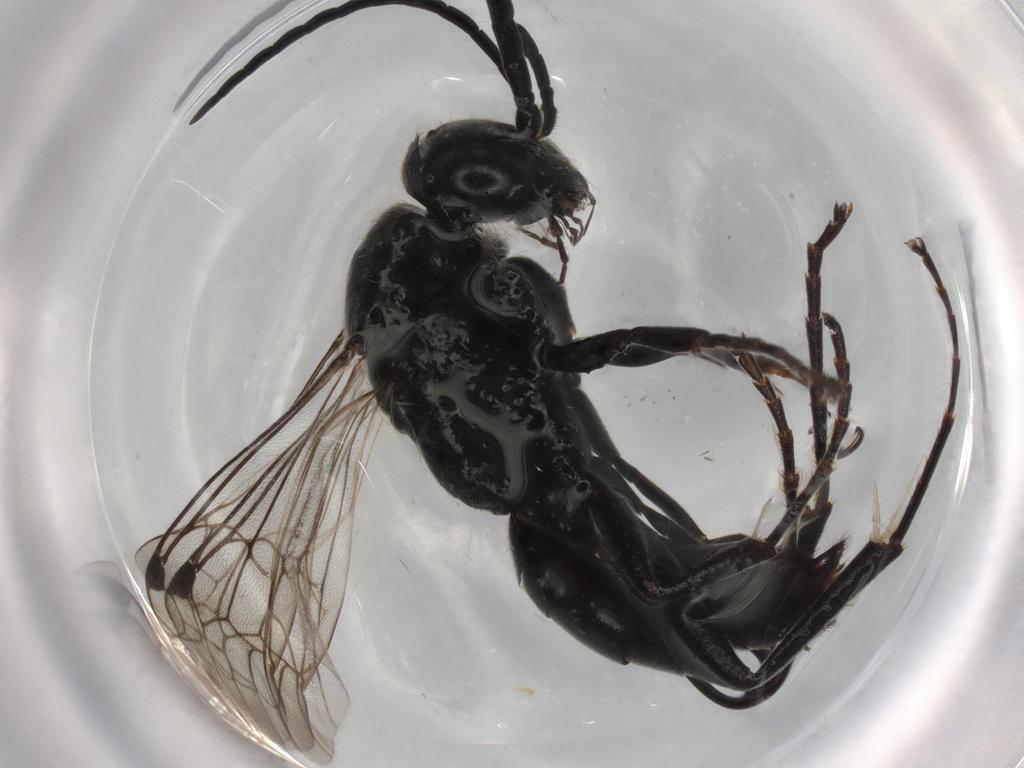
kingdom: Animalia
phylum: Arthropoda
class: Insecta
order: Hymenoptera
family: Pompilidae
